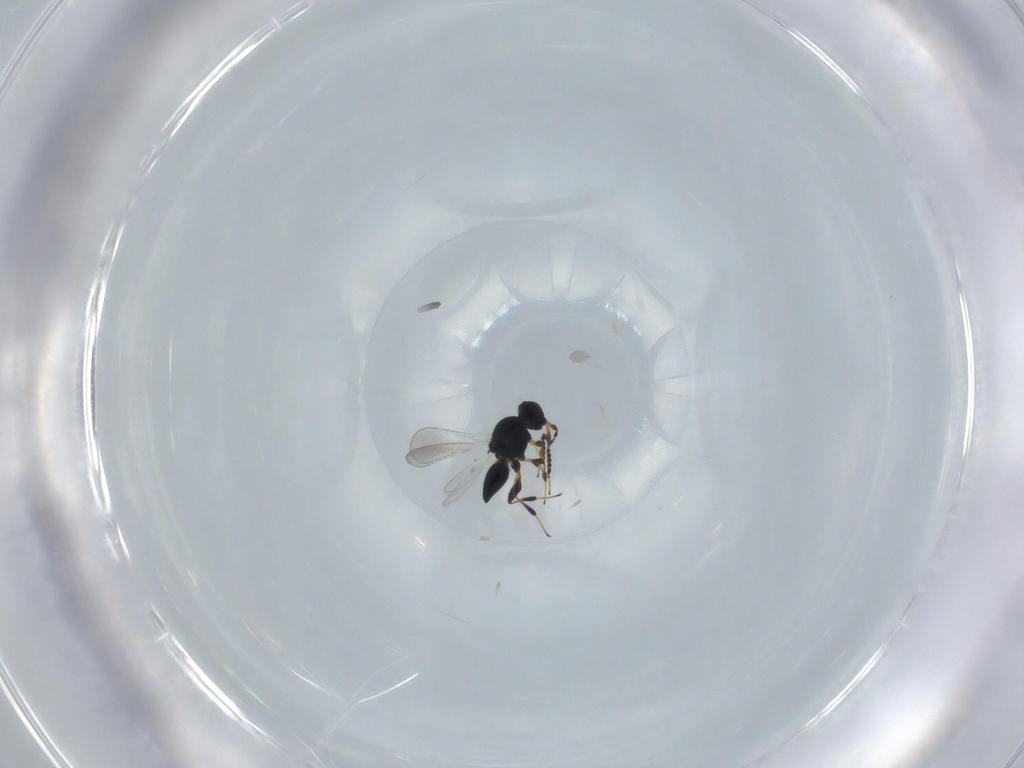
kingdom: Animalia
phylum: Arthropoda
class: Insecta
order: Hymenoptera
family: Platygastridae
